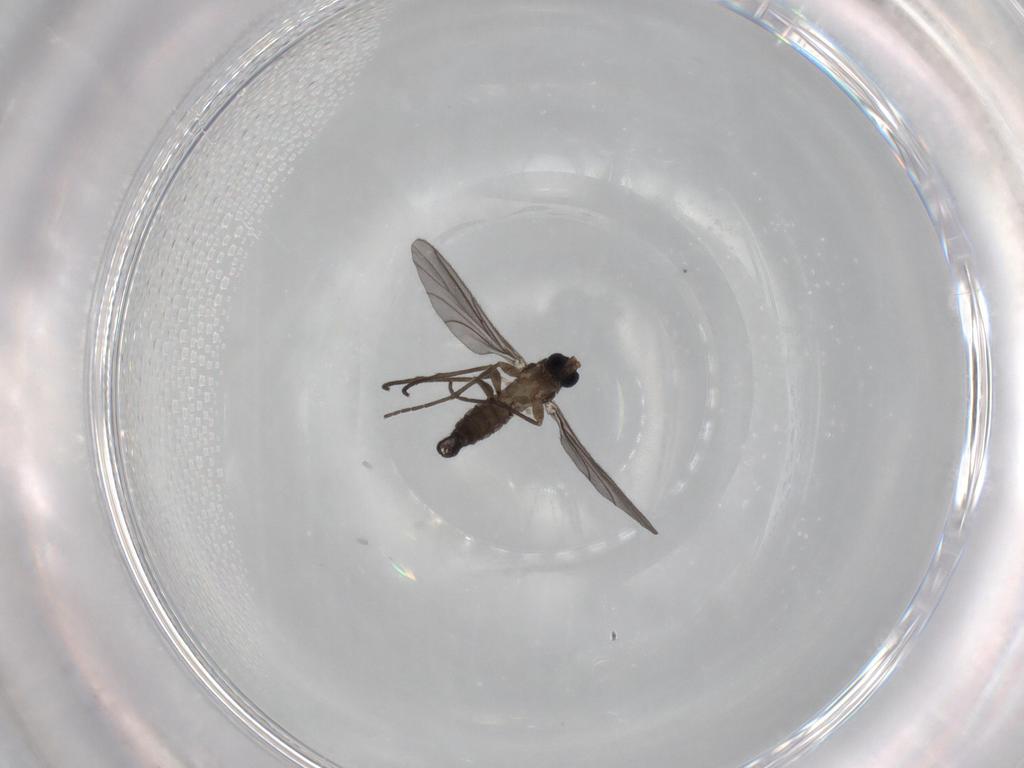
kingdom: Animalia
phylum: Arthropoda
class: Insecta
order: Diptera
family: Sciaridae
